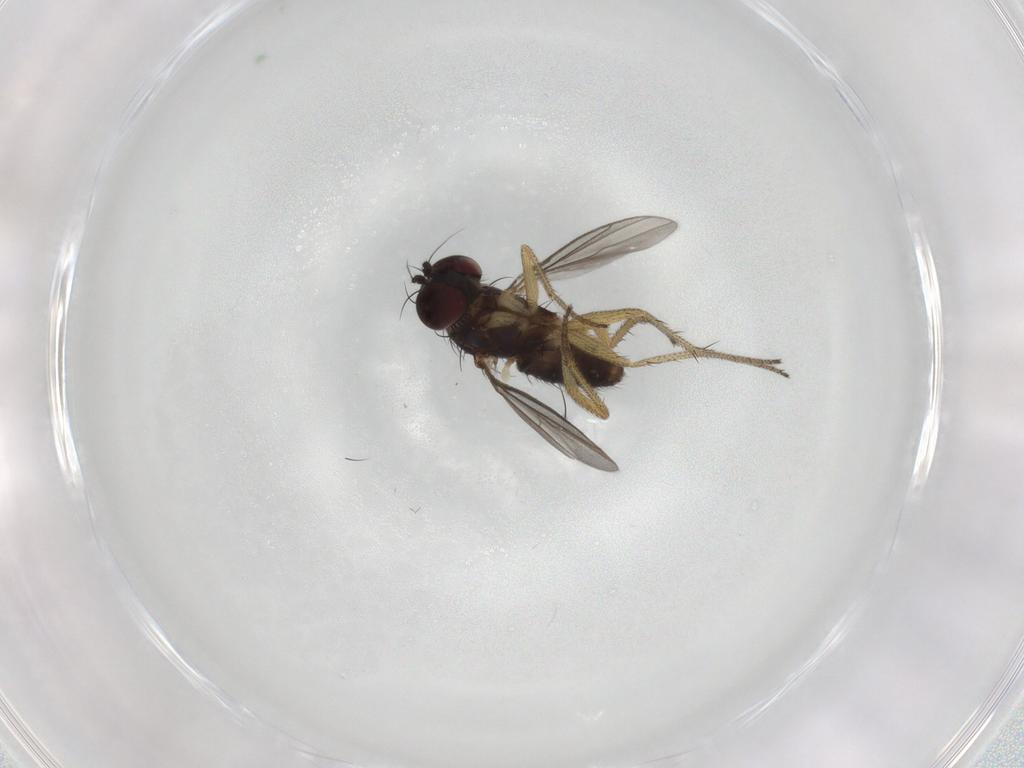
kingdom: Animalia
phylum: Arthropoda
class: Insecta
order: Diptera
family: Dolichopodidae
